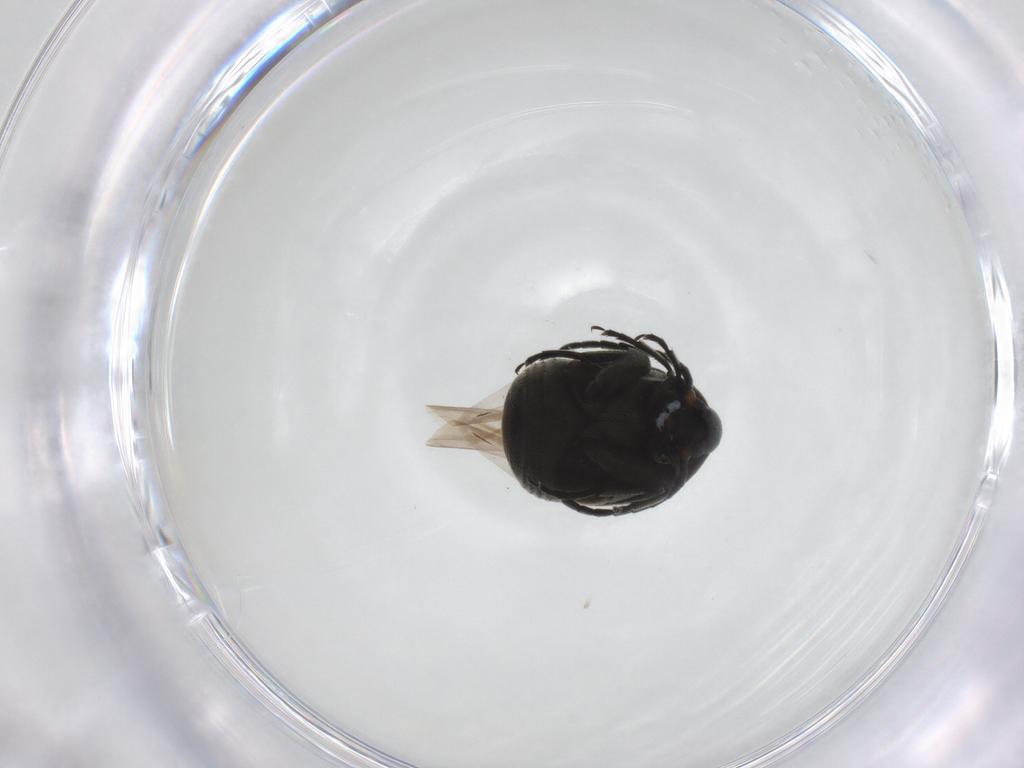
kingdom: Animalia
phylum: Arthropoda
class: Insecta
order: Coleoptera
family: Chrysomelidae
